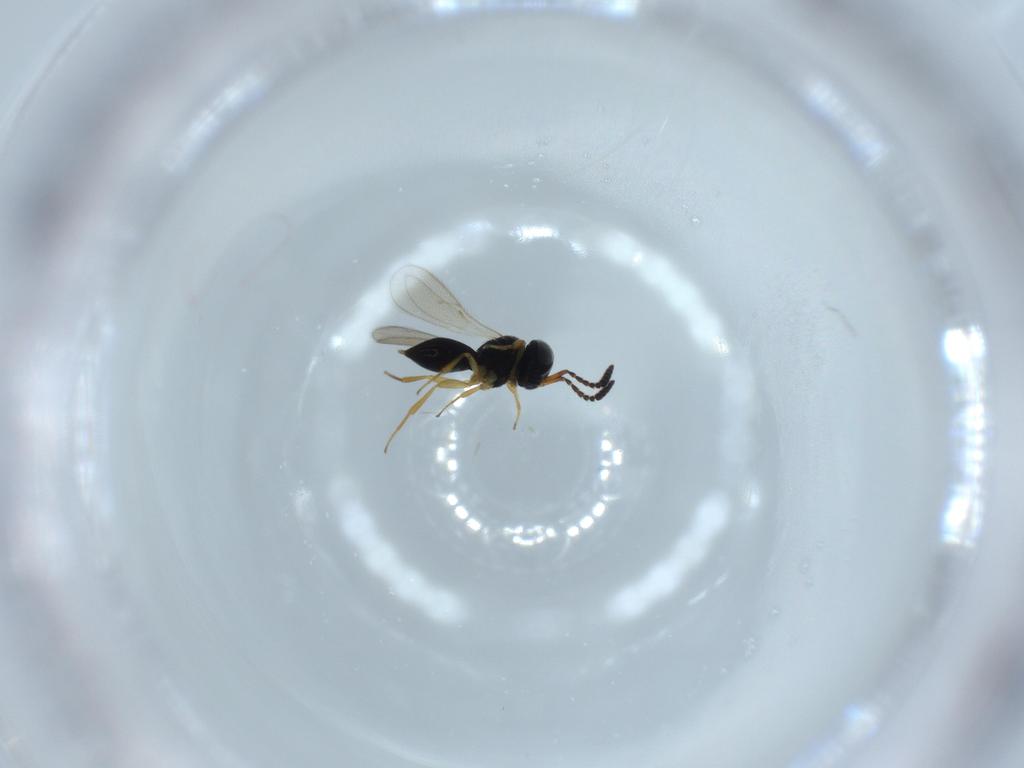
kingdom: Animalia
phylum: Arthropoda
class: Insecta
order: Hymenoptera
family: Scelionidae
